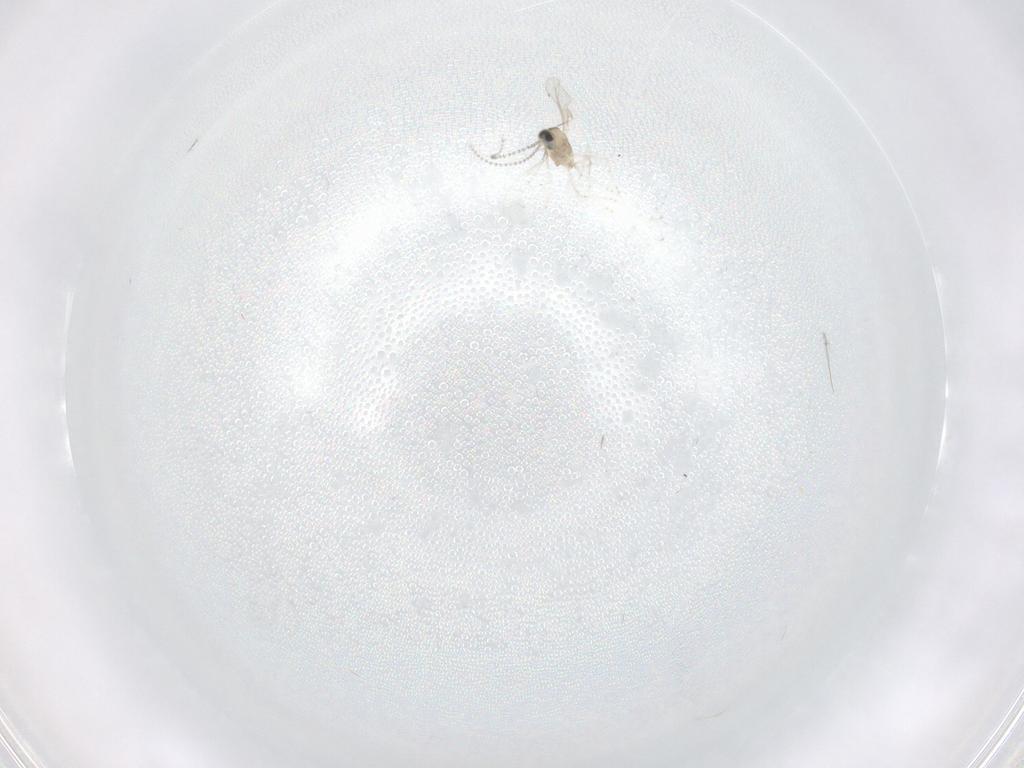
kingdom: Animalia
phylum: Arthropoda
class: Insecta
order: Diptera
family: Cecidomyiidae
